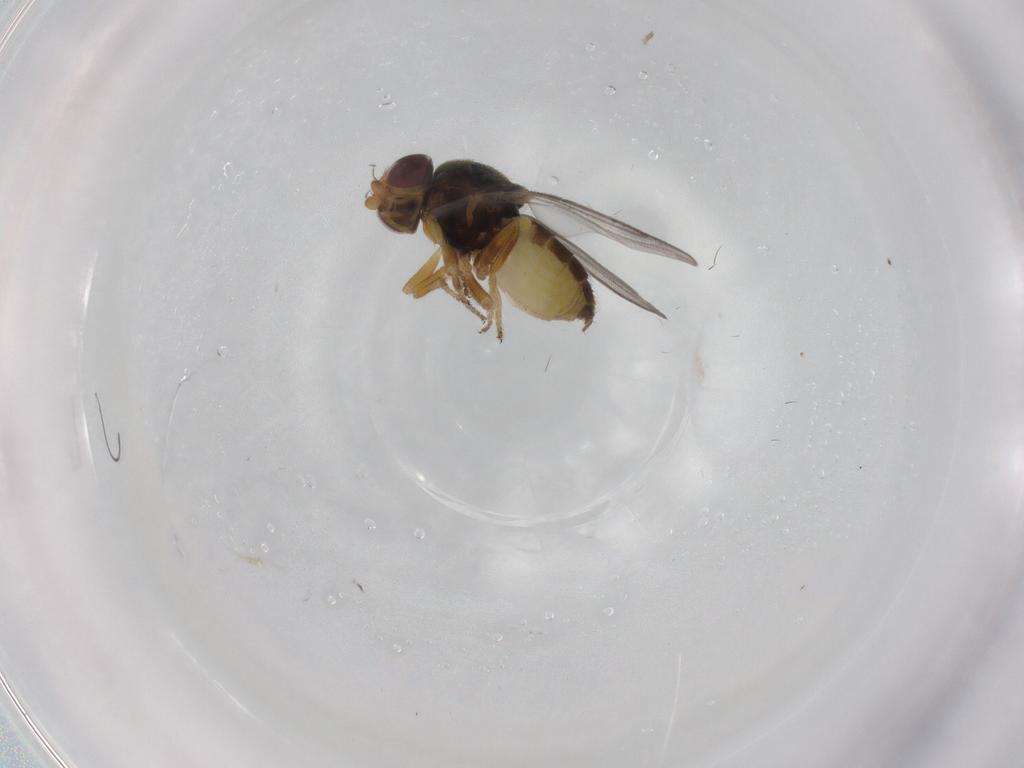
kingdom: Animalia
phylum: Arthropoda
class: Insecta
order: Diptera
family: Chloropidae
